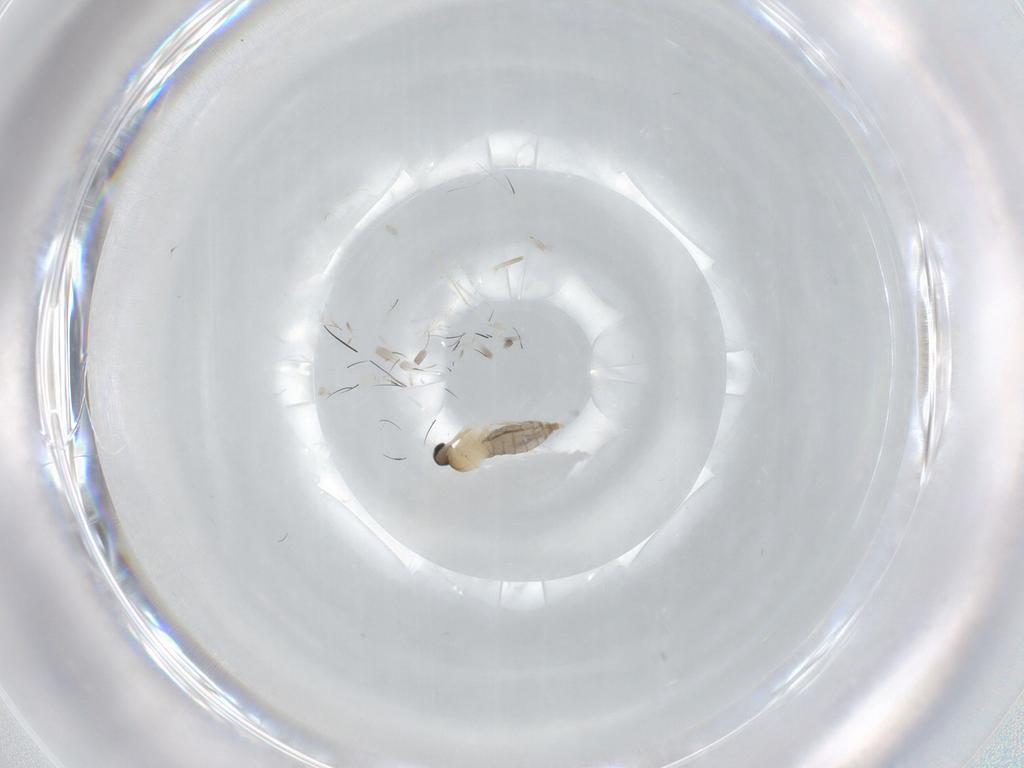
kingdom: Animalia
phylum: Arthropoda
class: Insecta
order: Diptera
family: Cecidomyiidae
